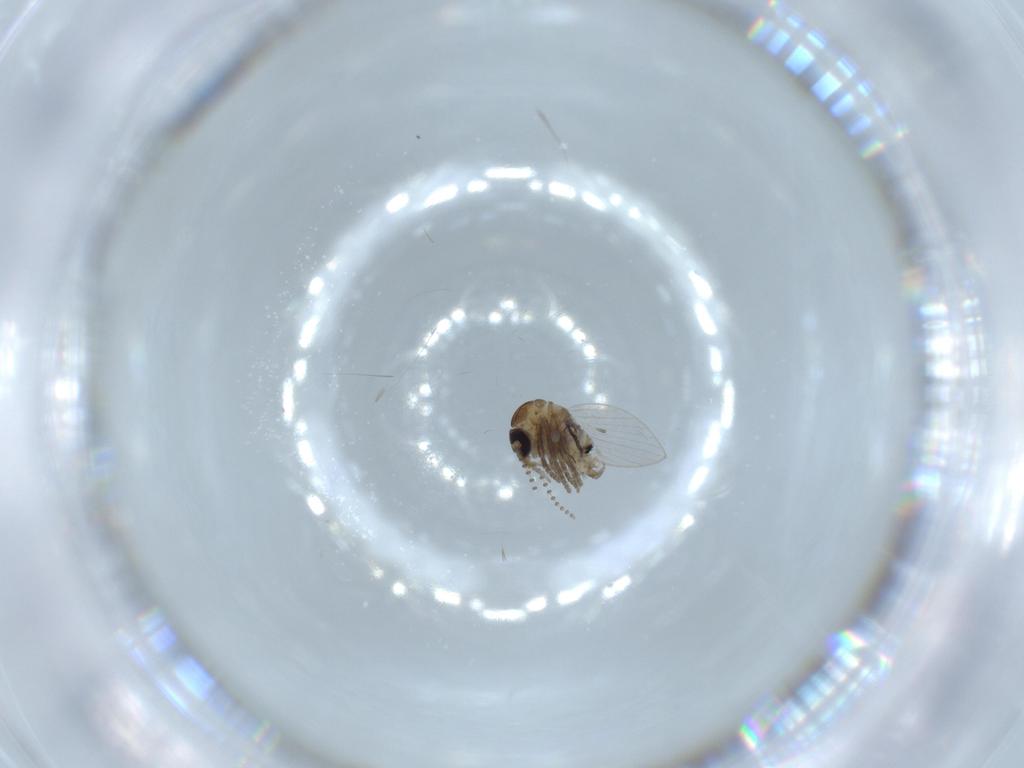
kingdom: Animalia
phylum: Arthropoda
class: Insecta
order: Diptera
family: Psychodidae
